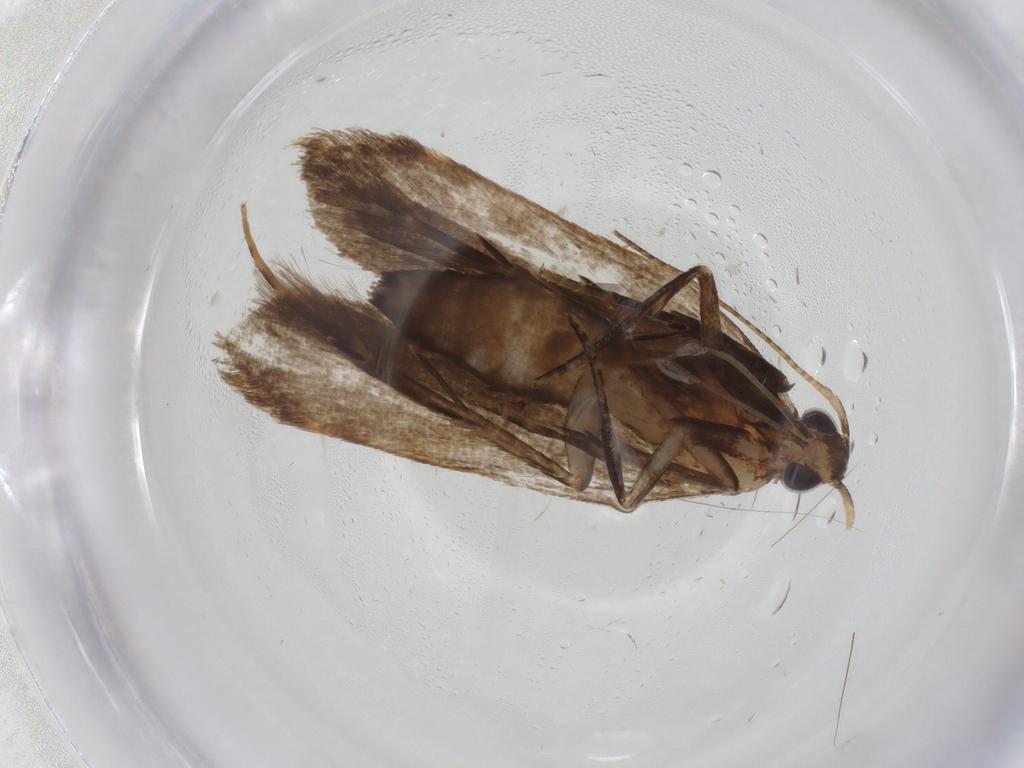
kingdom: Animalia
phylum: Arthropoda
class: Insecta
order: Lepidoptera
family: Gelechiidae
